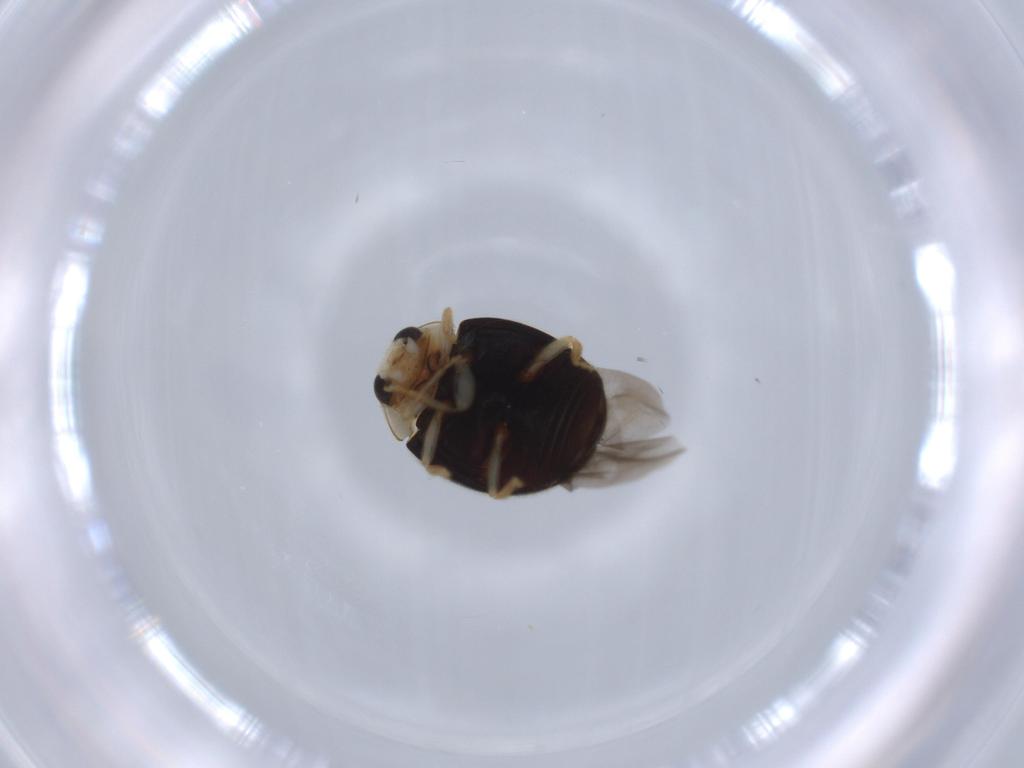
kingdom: Animalia
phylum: Arthropoda
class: Insecta
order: Coleoptera
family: Coccinellidae
